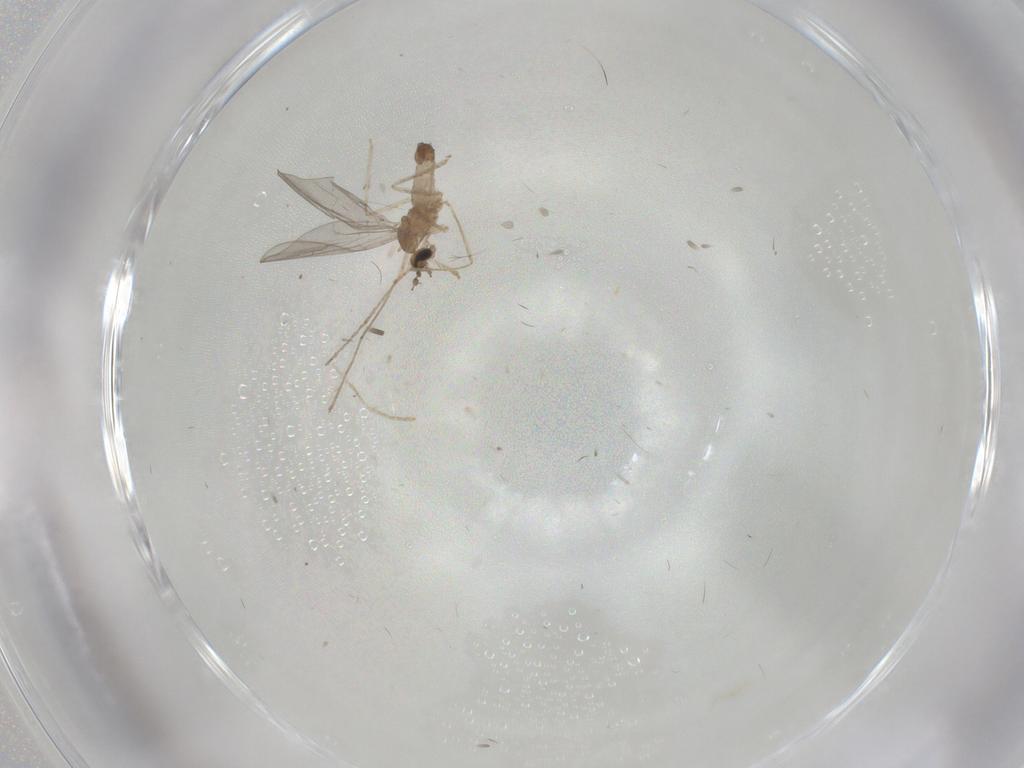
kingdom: Animalia
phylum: Arthropoda
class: Insecta
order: Diptera
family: Cecidomyiidae
